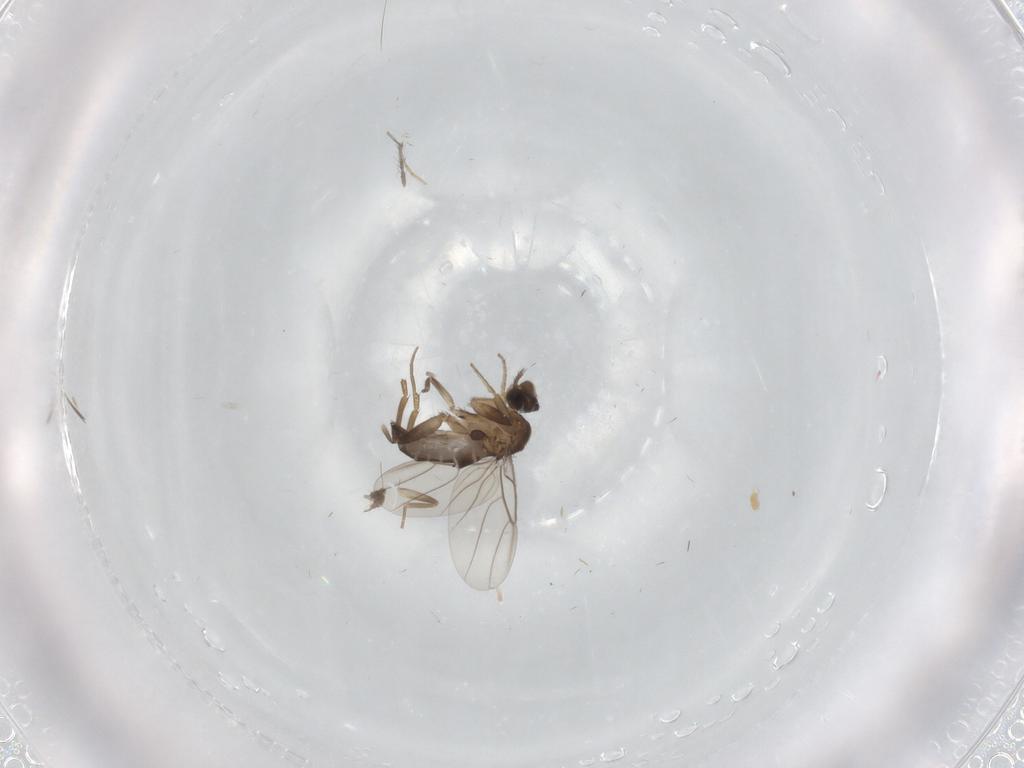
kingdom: Animalia
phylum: Arthropoda
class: Insecta
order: Diptera
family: Phoridae
